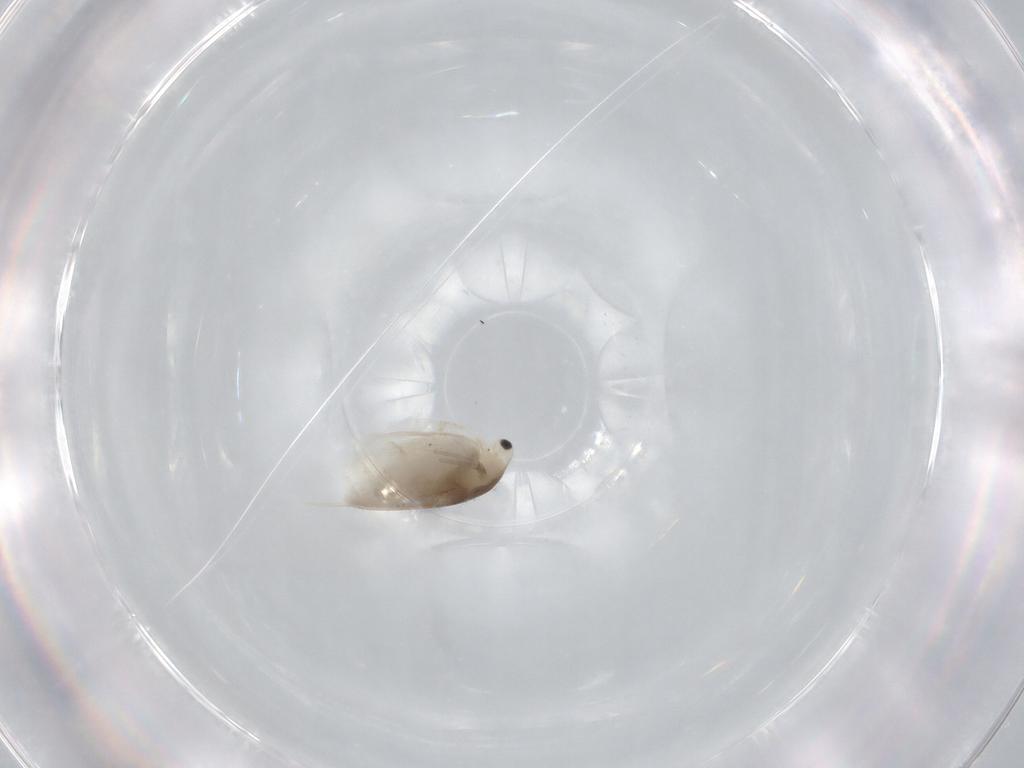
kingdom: Animalia
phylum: Arthropoda
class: Branchiopoda
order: Diplostraca
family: Daphniidae
